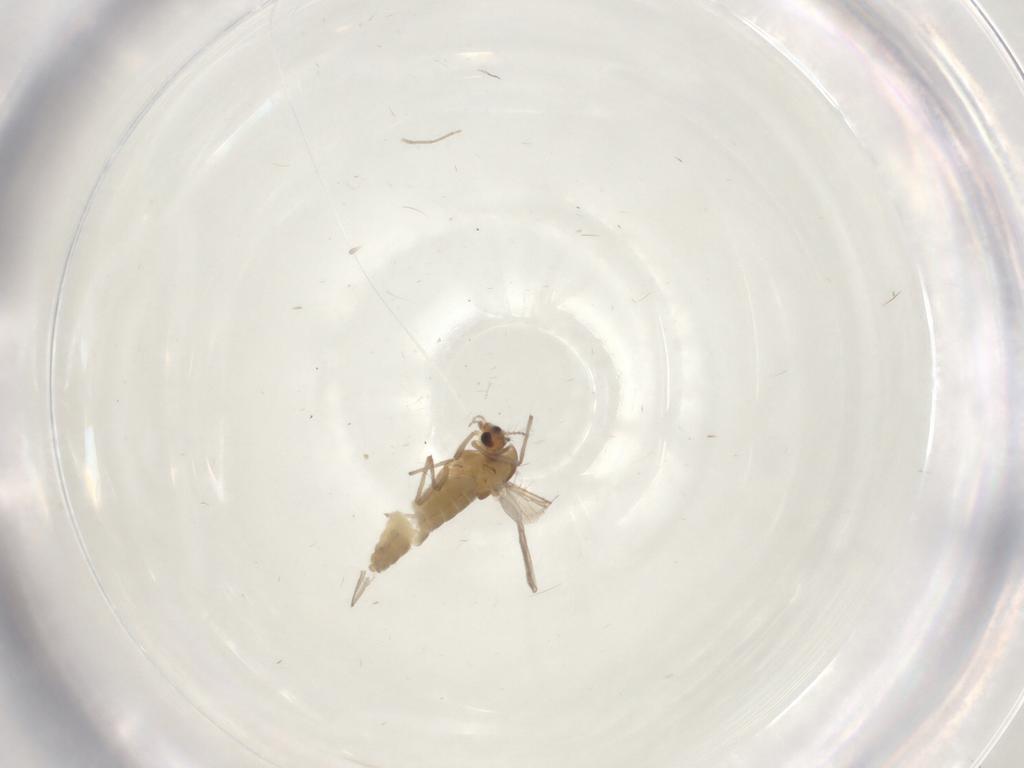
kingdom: Animalia
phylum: Arthropoda
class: Insecta
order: Diptera
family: Chironomidae
